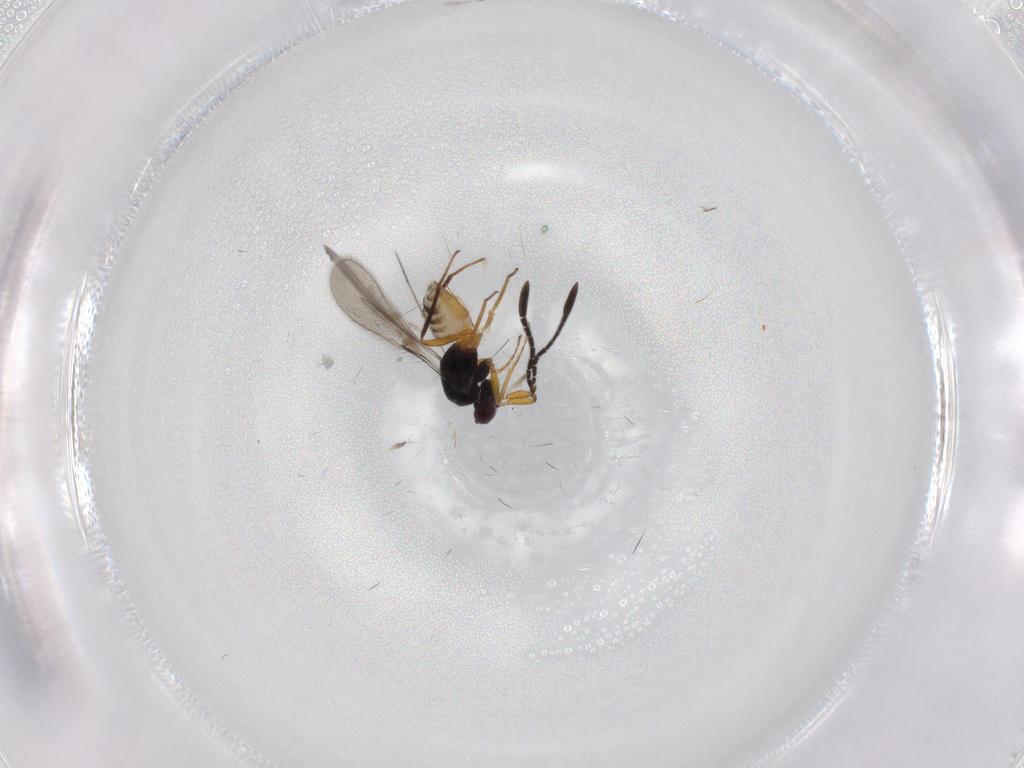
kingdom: Animalia
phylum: Arthropoda
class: Insecta
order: Hymenoptera
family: Mymaridae
